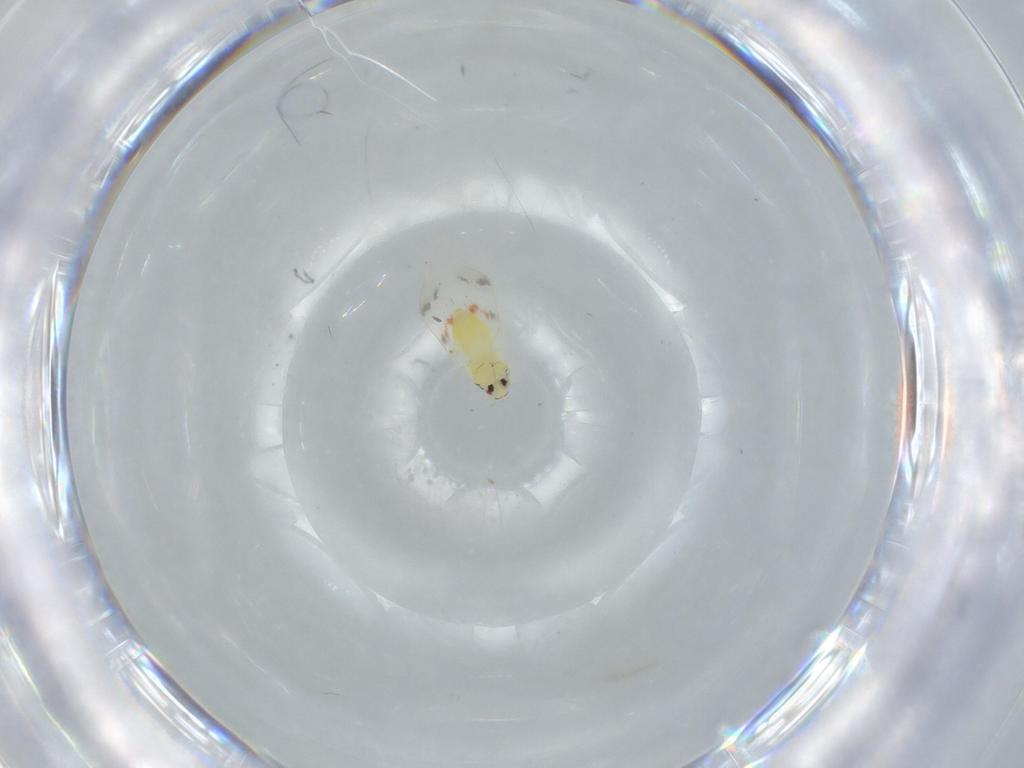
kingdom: Animalia
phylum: Arthropoda
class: Insecta
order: Hemiptera
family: Aleyrodidae
